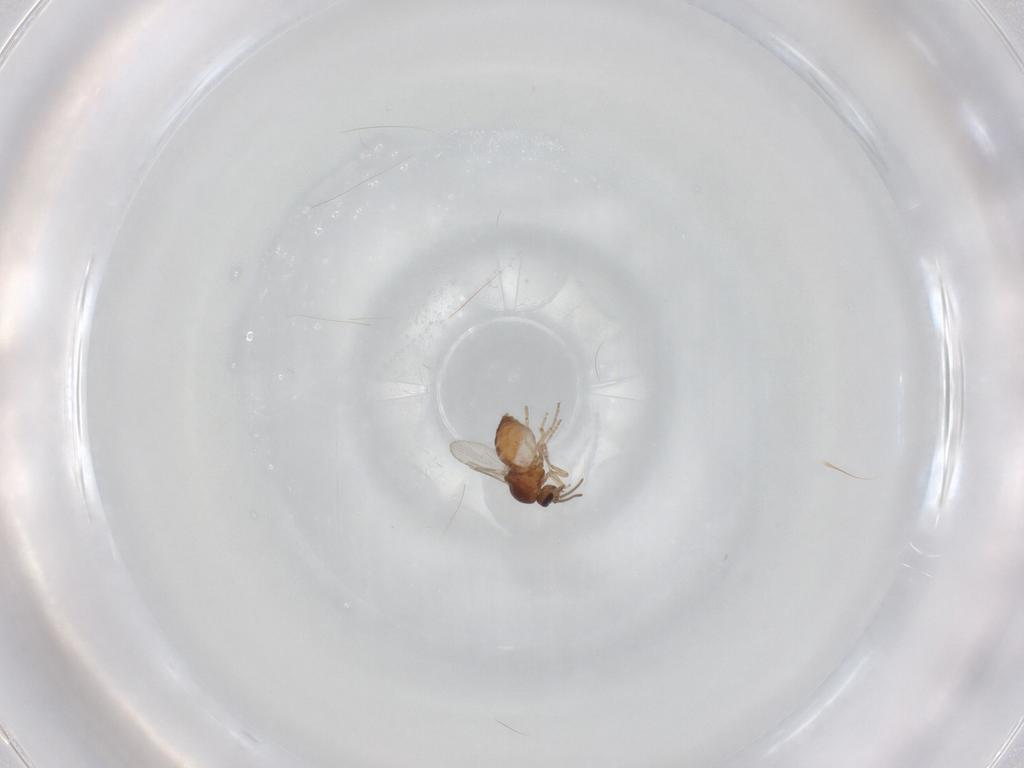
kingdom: Animalia
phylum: Arthropoda
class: Insecta
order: Diptera
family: Ceratopogonidae
